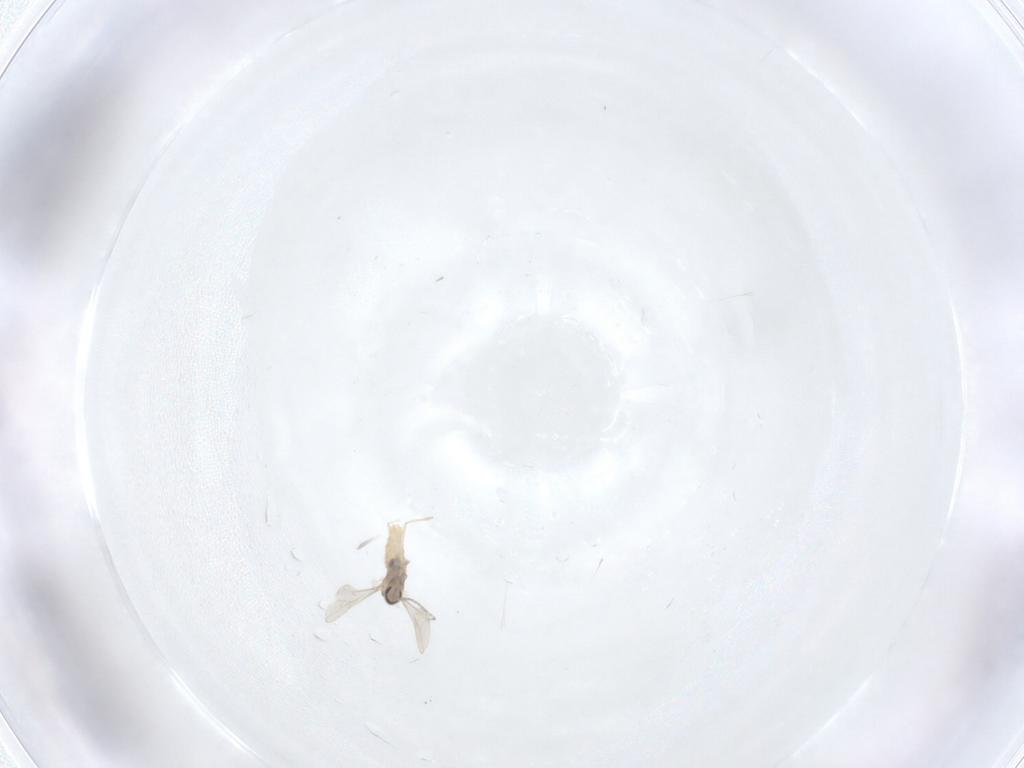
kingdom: Animalia
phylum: Arthropoda
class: Insecta
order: Diptera
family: Cecidomyiidae
